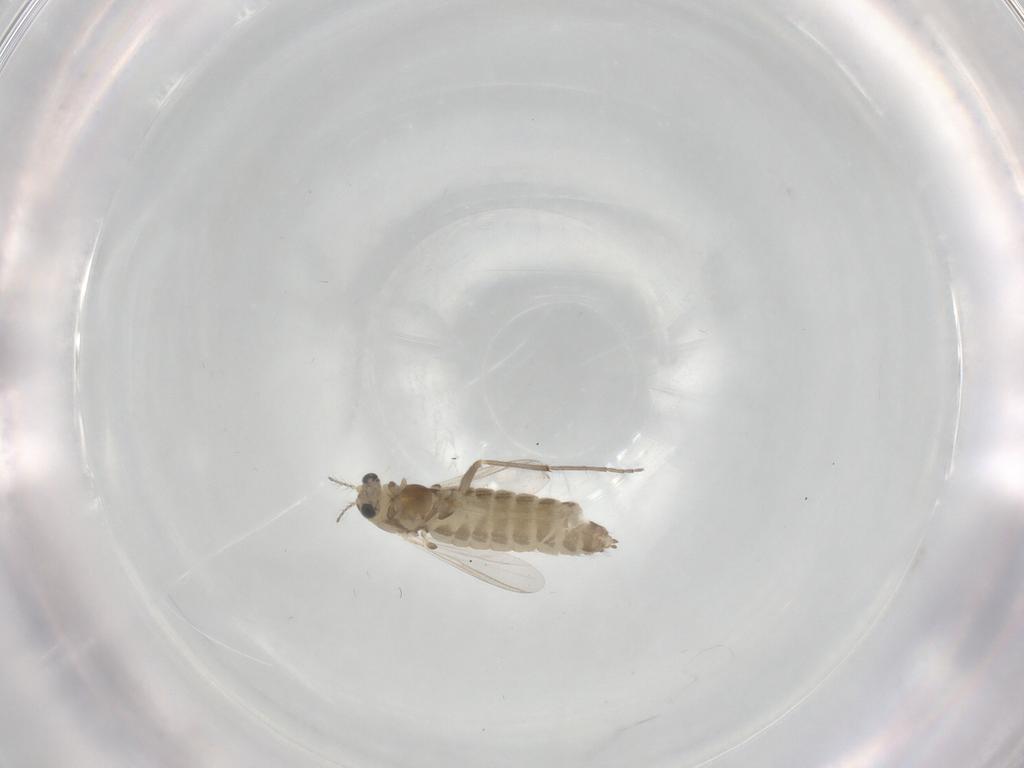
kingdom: Animalia
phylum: Arthropoda
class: Insecta
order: Diptera
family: Chironomidae
